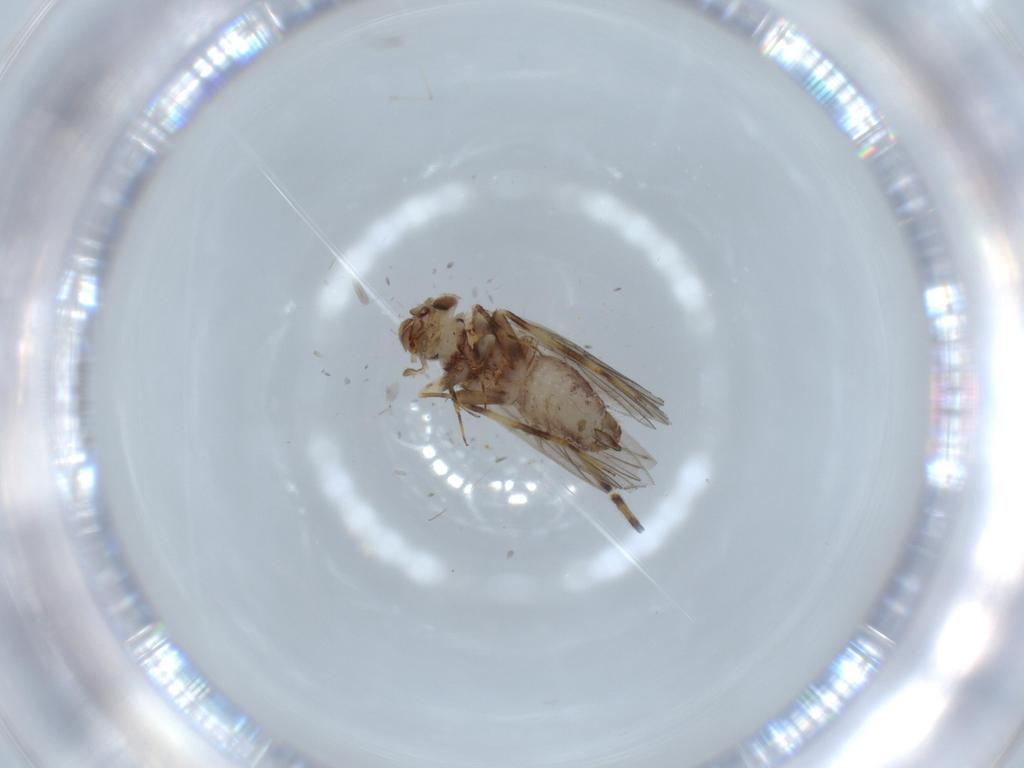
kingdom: Animalia
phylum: Arthropoda
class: Insecta
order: Psocodea
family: Lepidopsocidae
